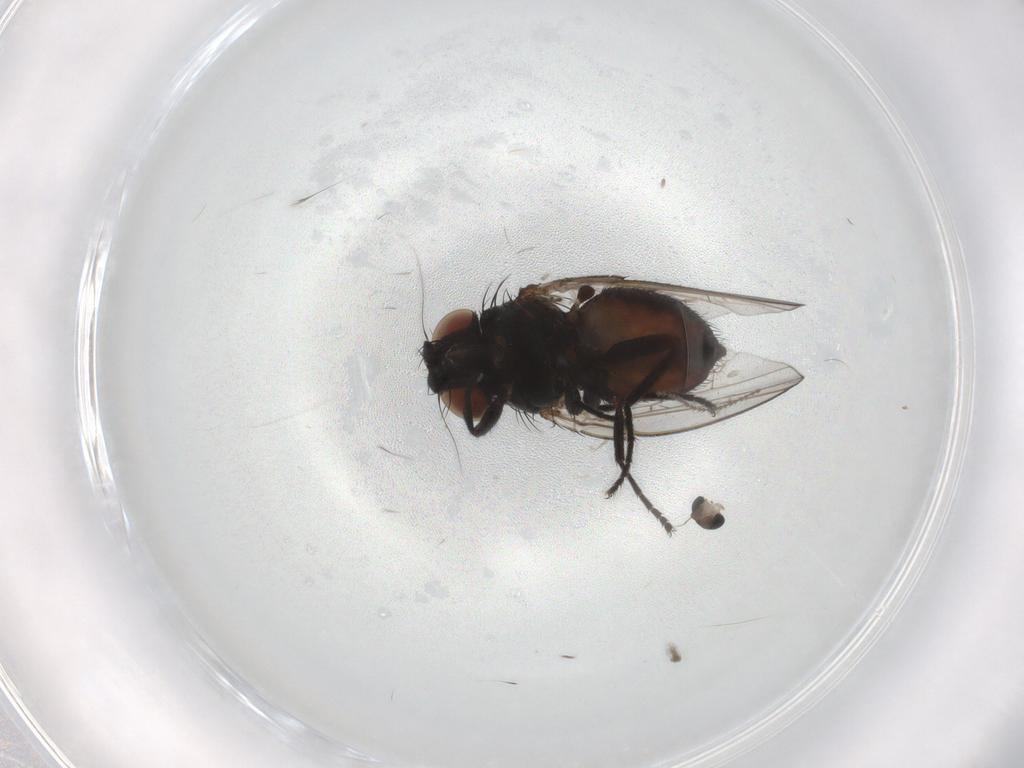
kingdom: Animalia
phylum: Arthropoda
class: Insecta
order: Diptera
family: Milichiidae
